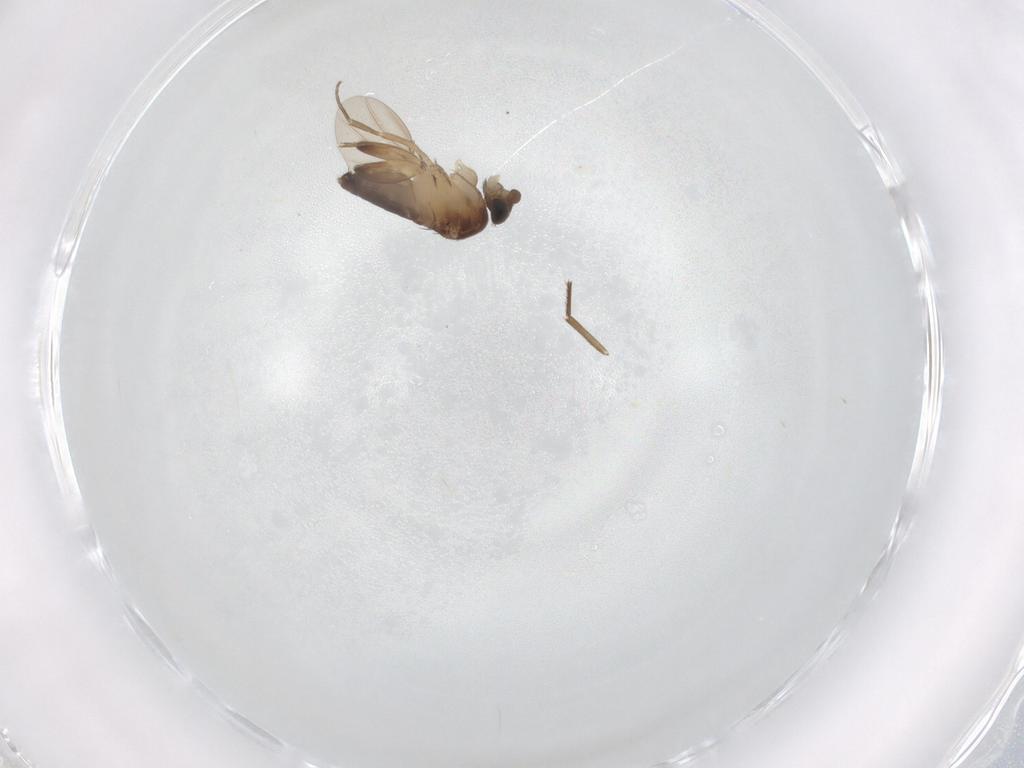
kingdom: Animalia
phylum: Arthropoda
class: Insecta
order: Diptera
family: Phoridae
